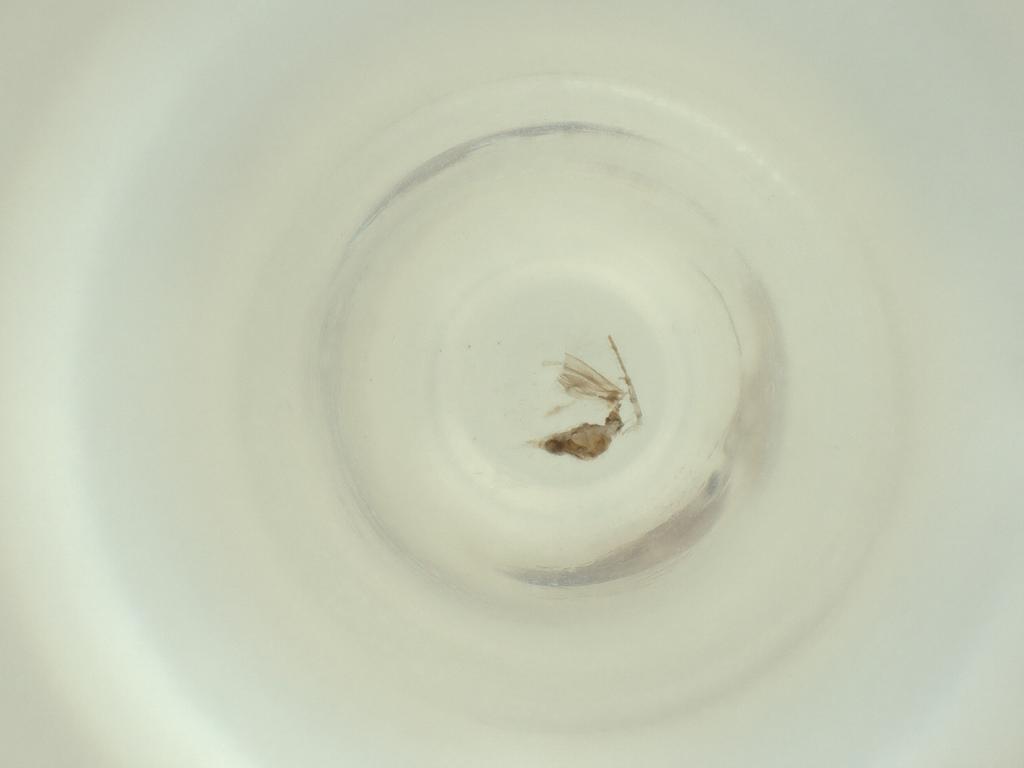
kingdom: Animalia
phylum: Arthropoda
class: Insecta
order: Diptera
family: Cecidomyiidae
